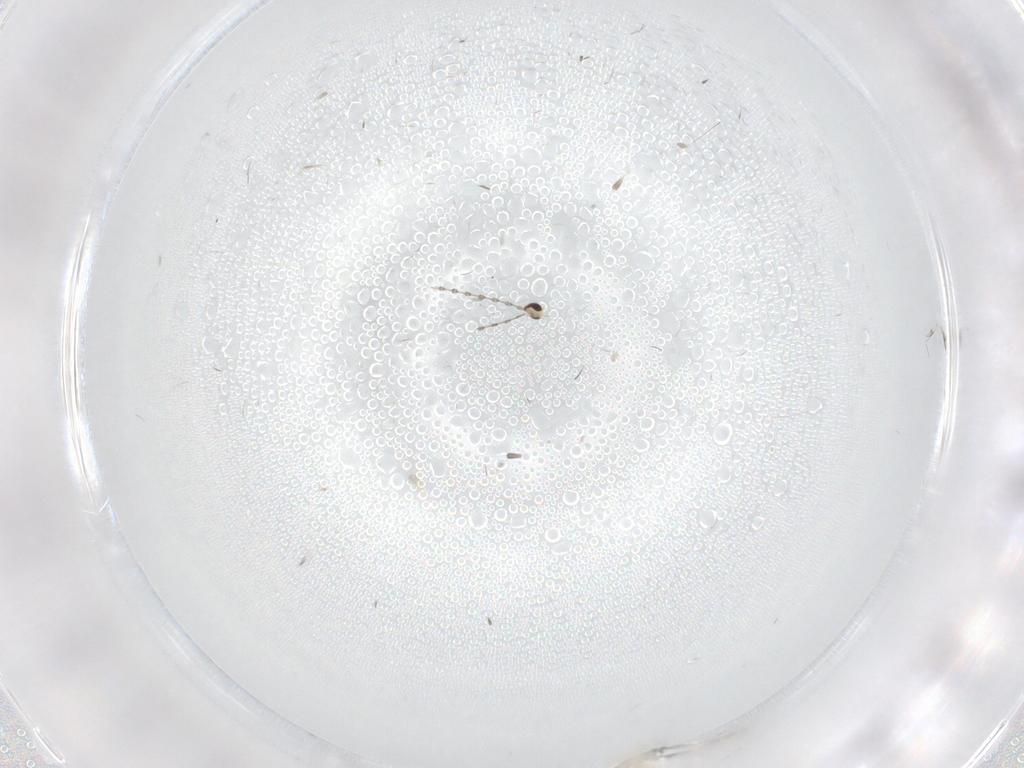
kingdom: Animalia
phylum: Arthropoda
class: Insecta
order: Diptera
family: Cecidomyiidae
